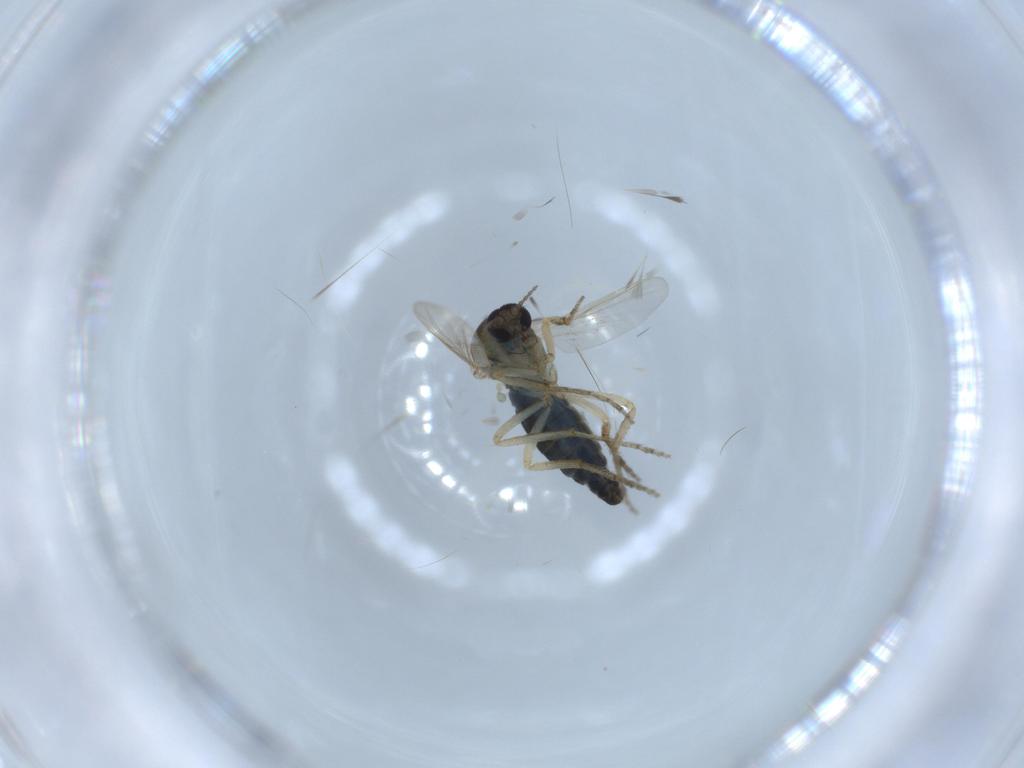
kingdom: Animalia
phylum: Arthropoda
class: Insecta
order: Diptera
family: Ceratopogonidae
